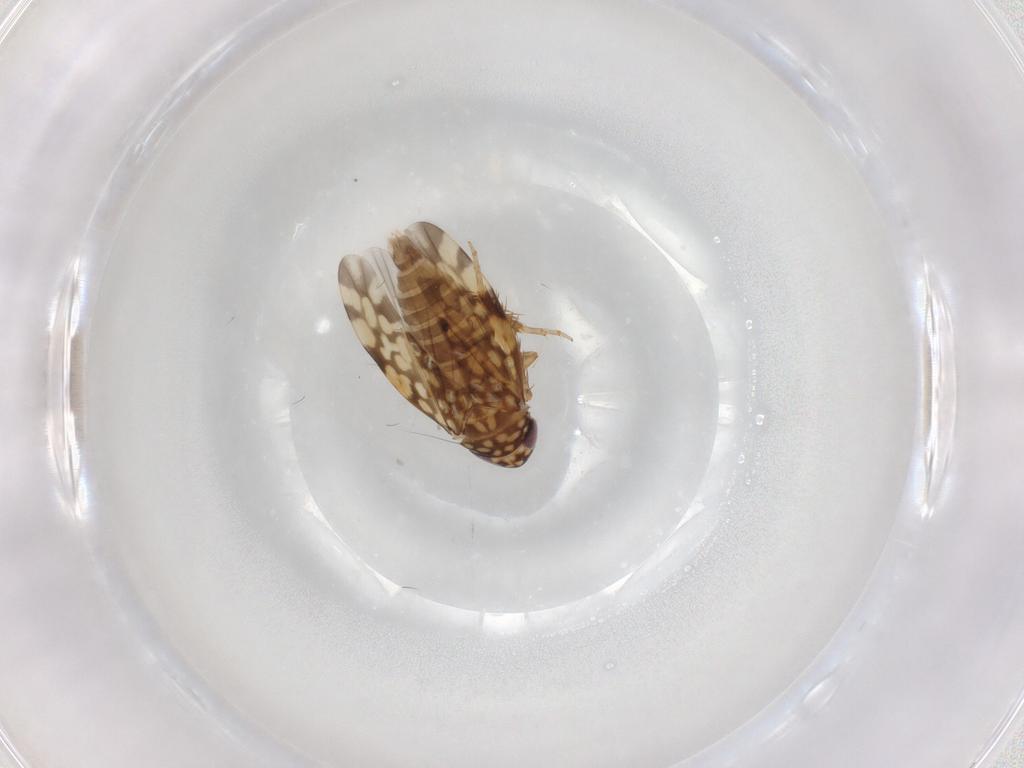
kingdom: Animalia
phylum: Arthropoda
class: Insecta
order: Hemiptera
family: Cicadellidae
